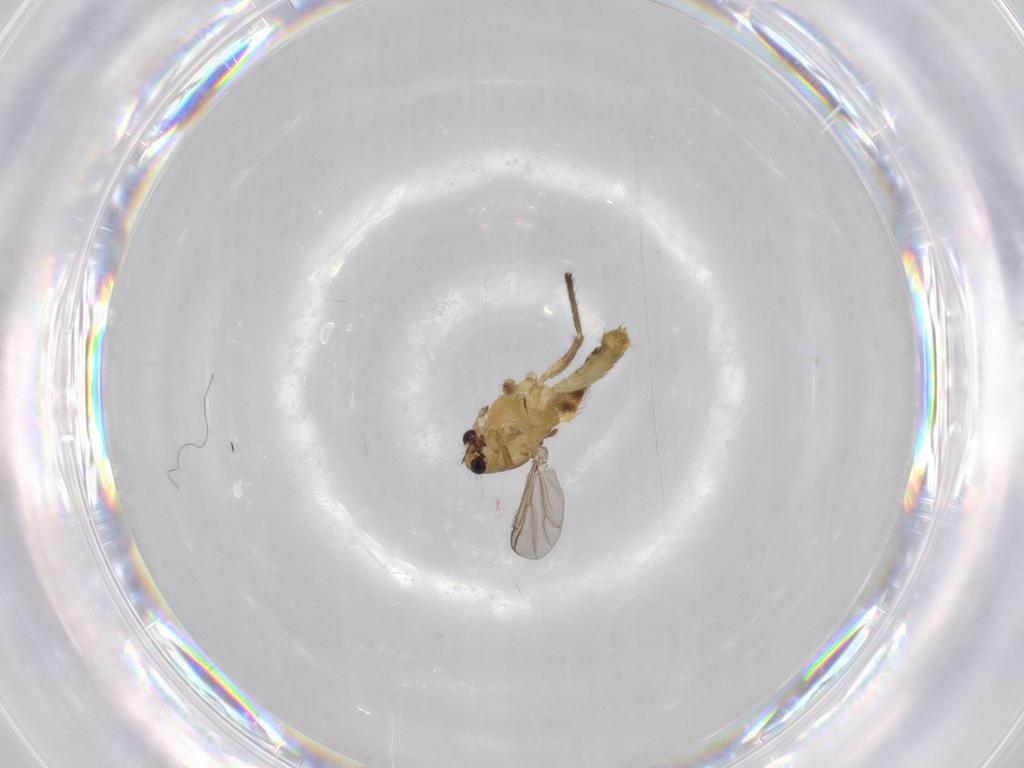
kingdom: Animalia
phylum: Arthropoda
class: Insecta
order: Diptera
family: Chironomidae
